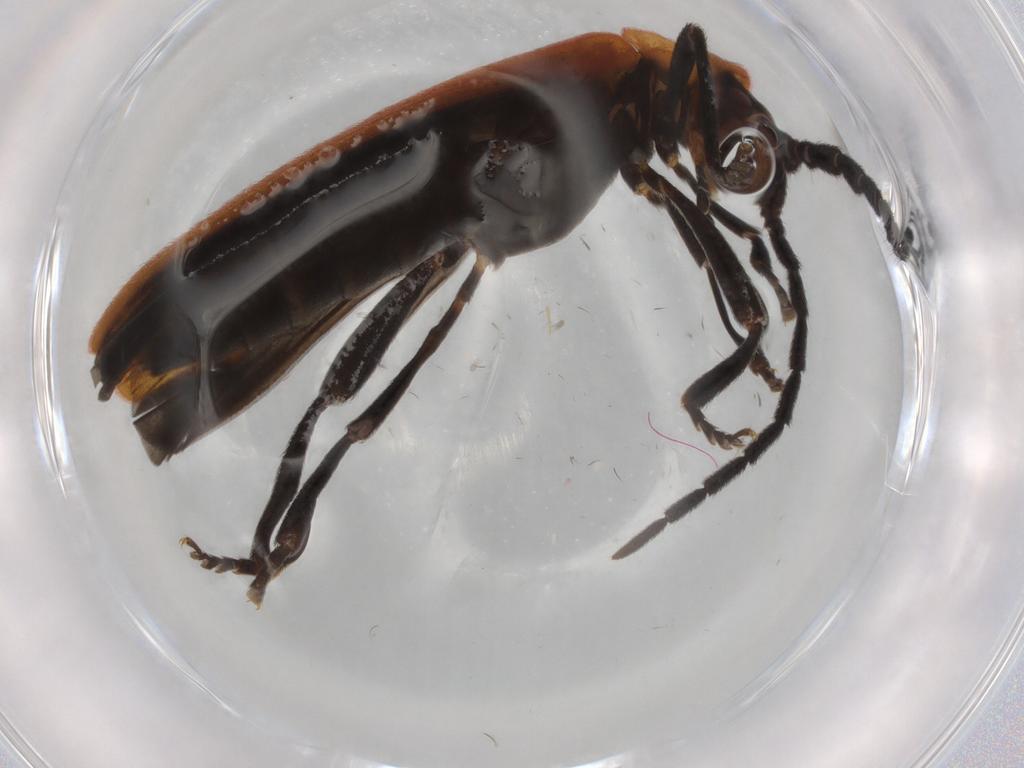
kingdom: Animalia
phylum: Arthropoda
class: Insecta
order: Coleoptera
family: Lycidae
